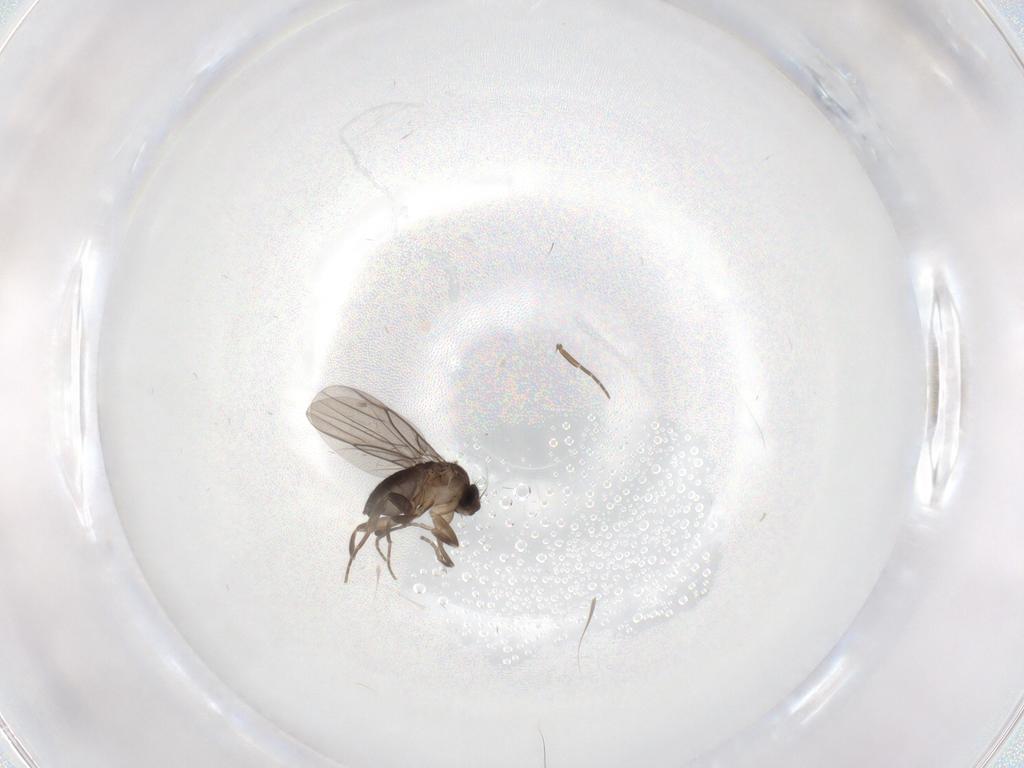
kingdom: Animalia
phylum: Arthropoda
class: Insecta
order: Diptera
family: Phoridae
